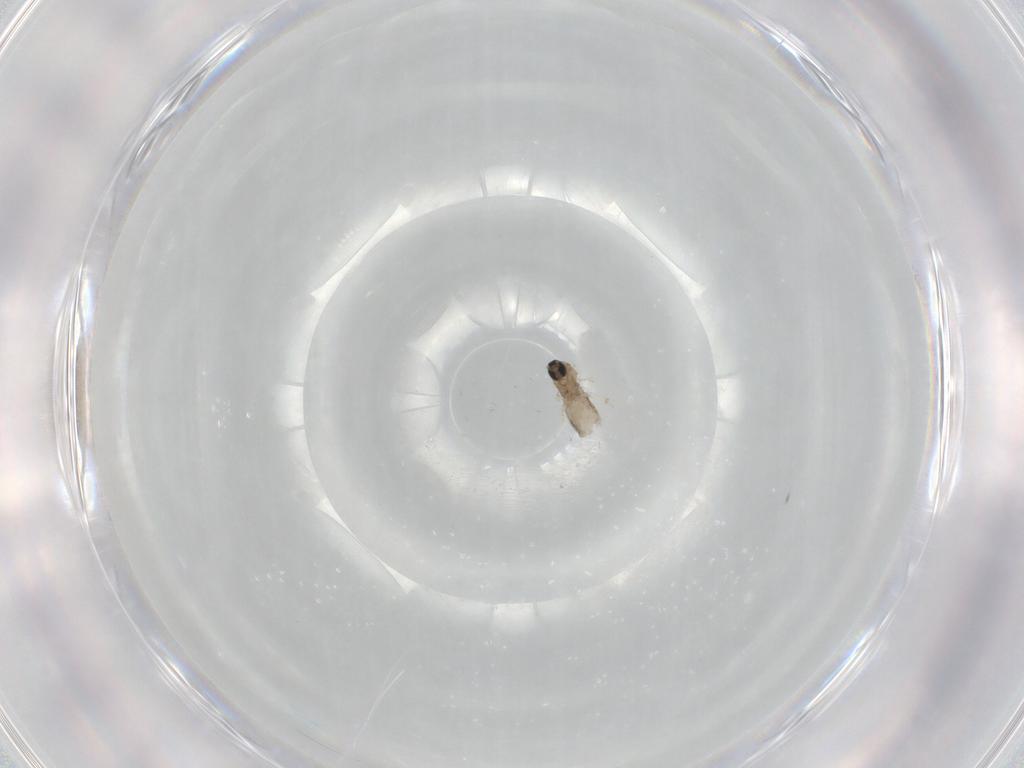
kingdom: Animalia
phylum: Arthropoda
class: Insecta
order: Diptera
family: Cecidomyiidae
